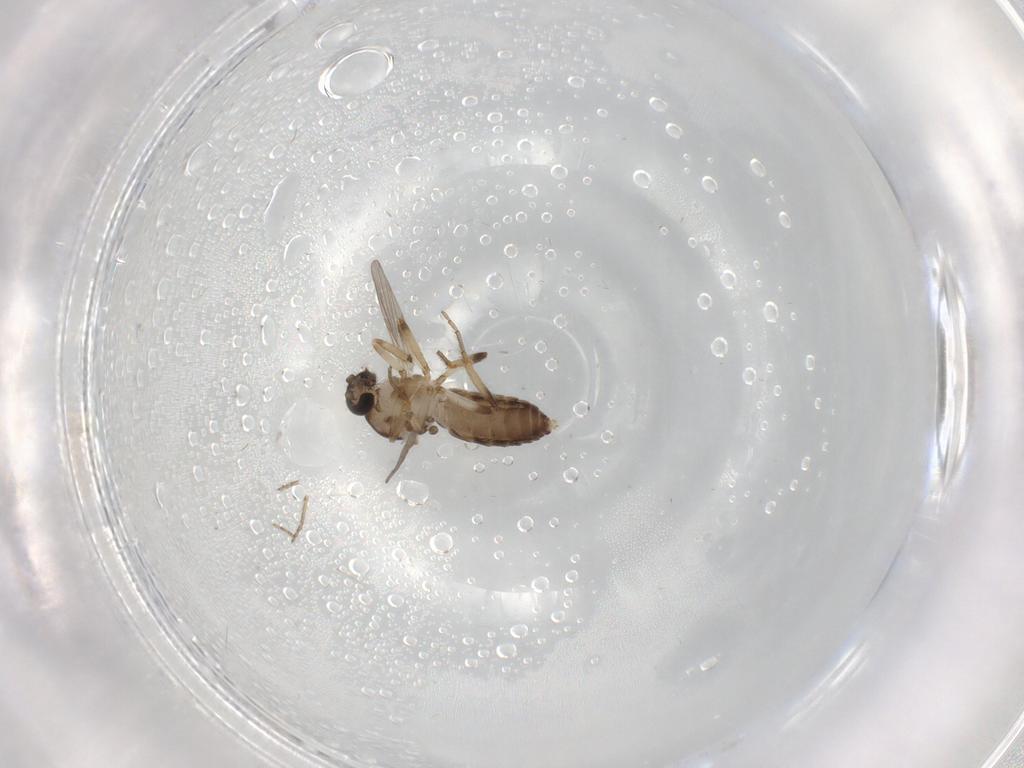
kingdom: Animalia
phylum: Arthropoda
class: Insecta
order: Diptera
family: Ceratopogonidae
